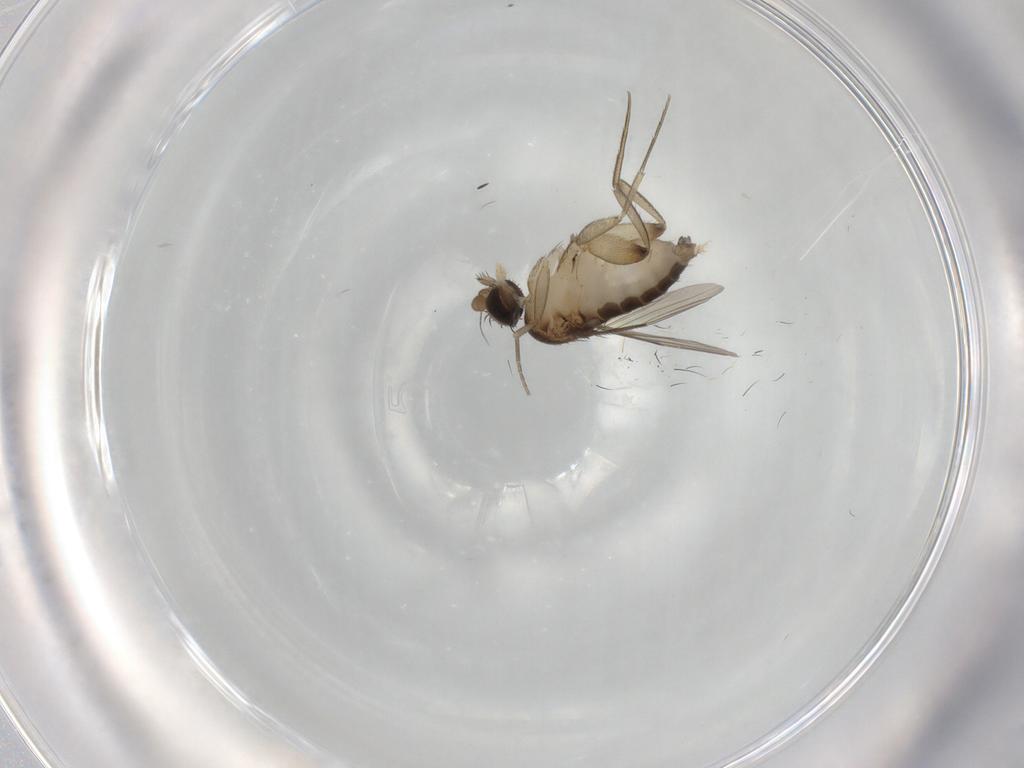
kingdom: Animalia
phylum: Arthropoda
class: Insecta
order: Diptera
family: Phoridae
